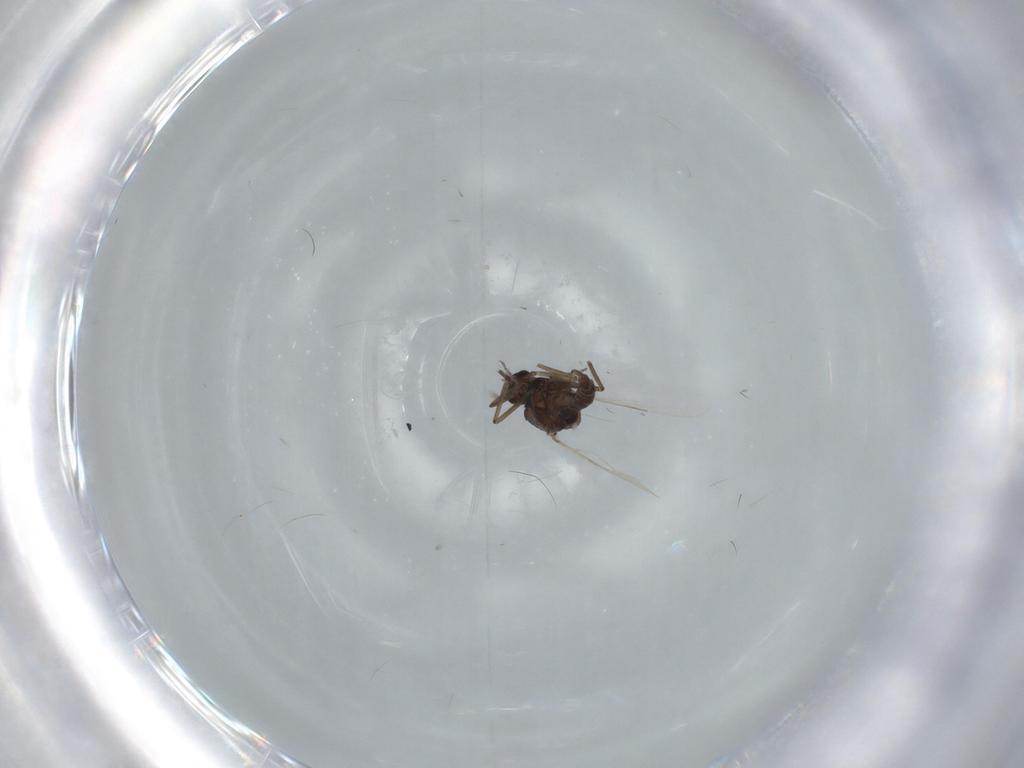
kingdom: Animalia
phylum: Arthropoda
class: Insecta
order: Diptera
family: Ceratopogonidae
